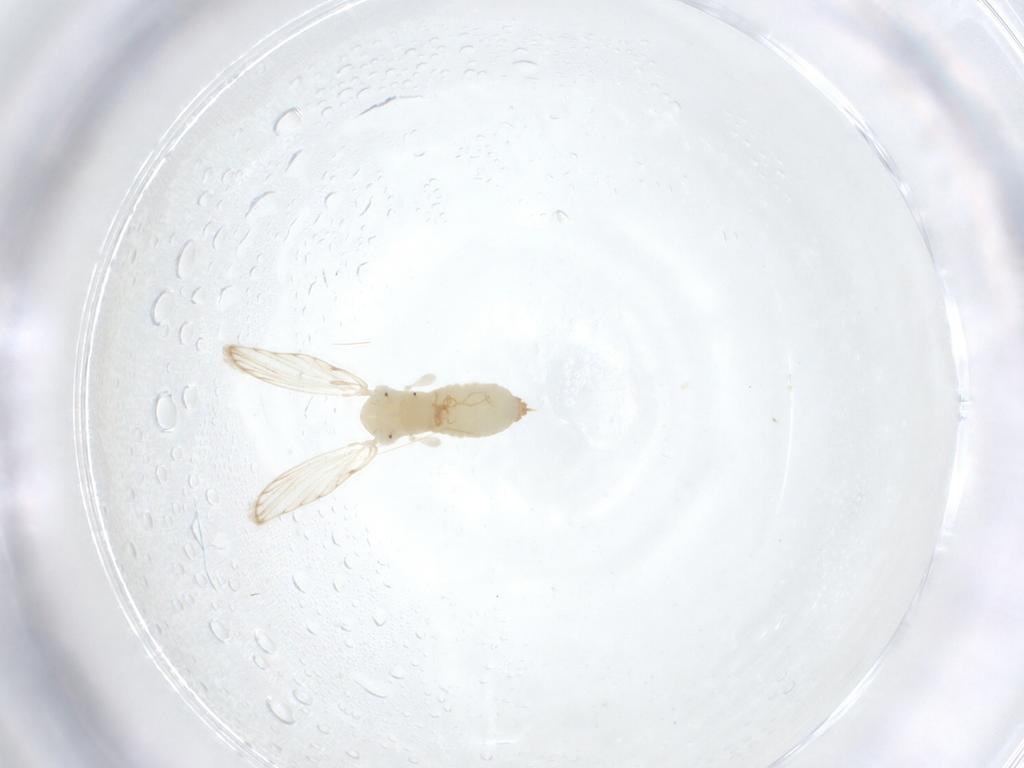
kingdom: Animalia
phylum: Arthropoda
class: Insecta
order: Diptera
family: Psychodidae
